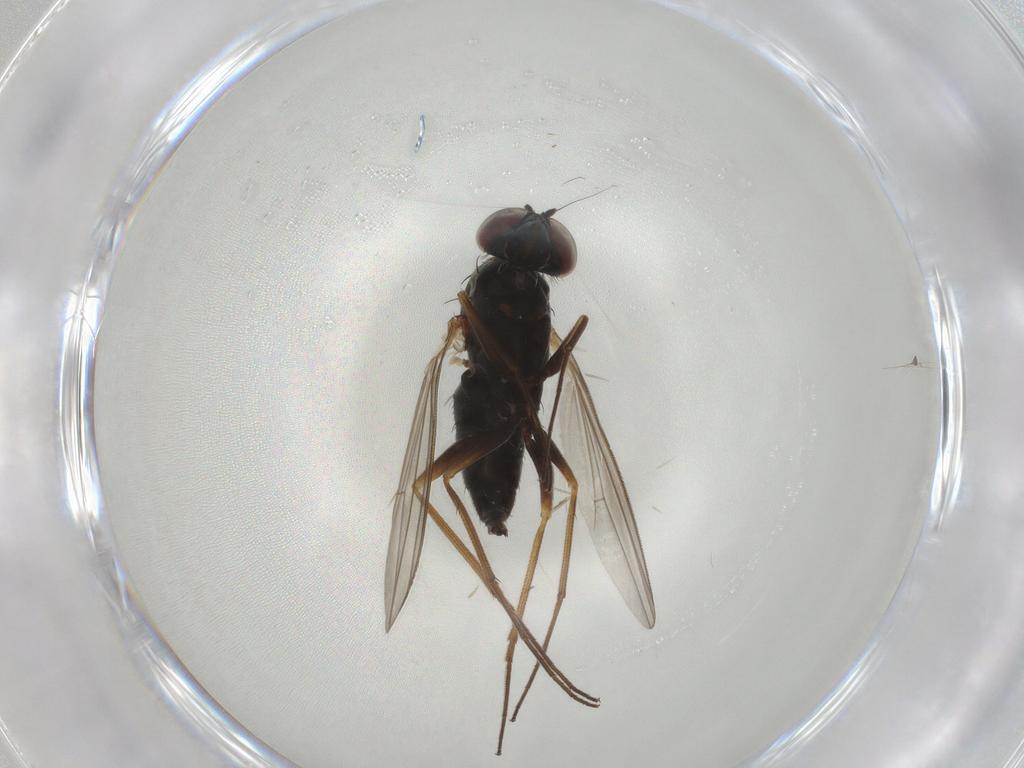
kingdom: Animalia
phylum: Arthropoda
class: Insecta
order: Diptera
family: Dolichopodidae
